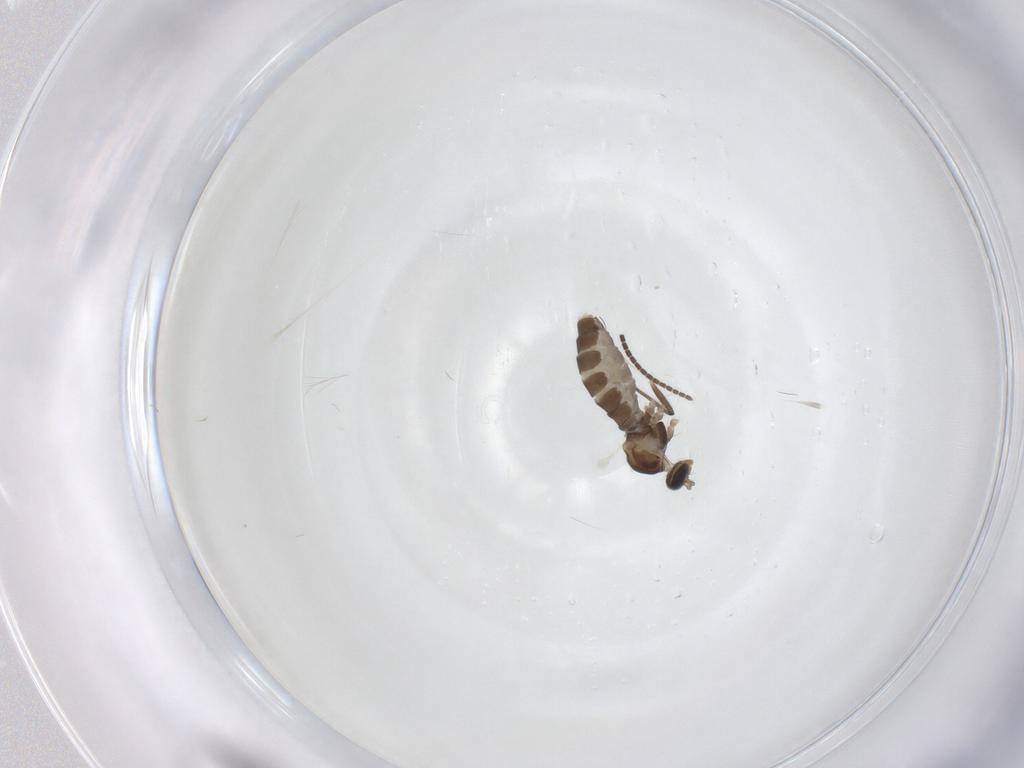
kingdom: Animalia
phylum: Arthropoda
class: Insecta
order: Diptera
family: Cecidomyiidae
